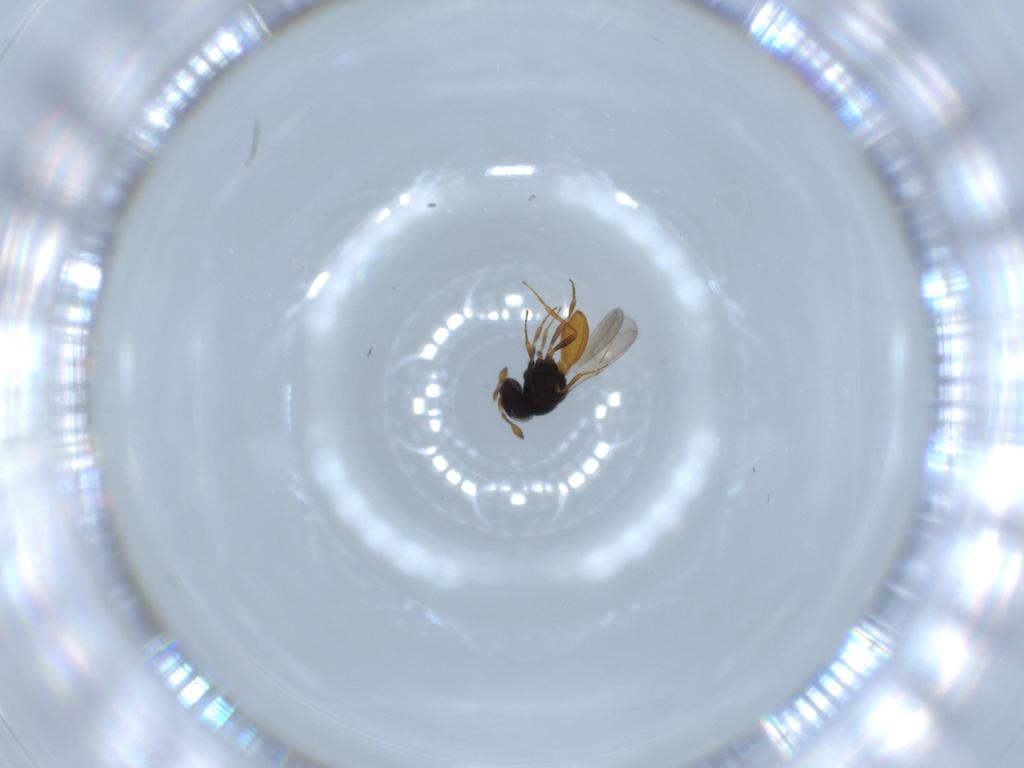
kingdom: Animalia
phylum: Arthropoda
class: Insecta
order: Hymenoptera
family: Scelionidae
